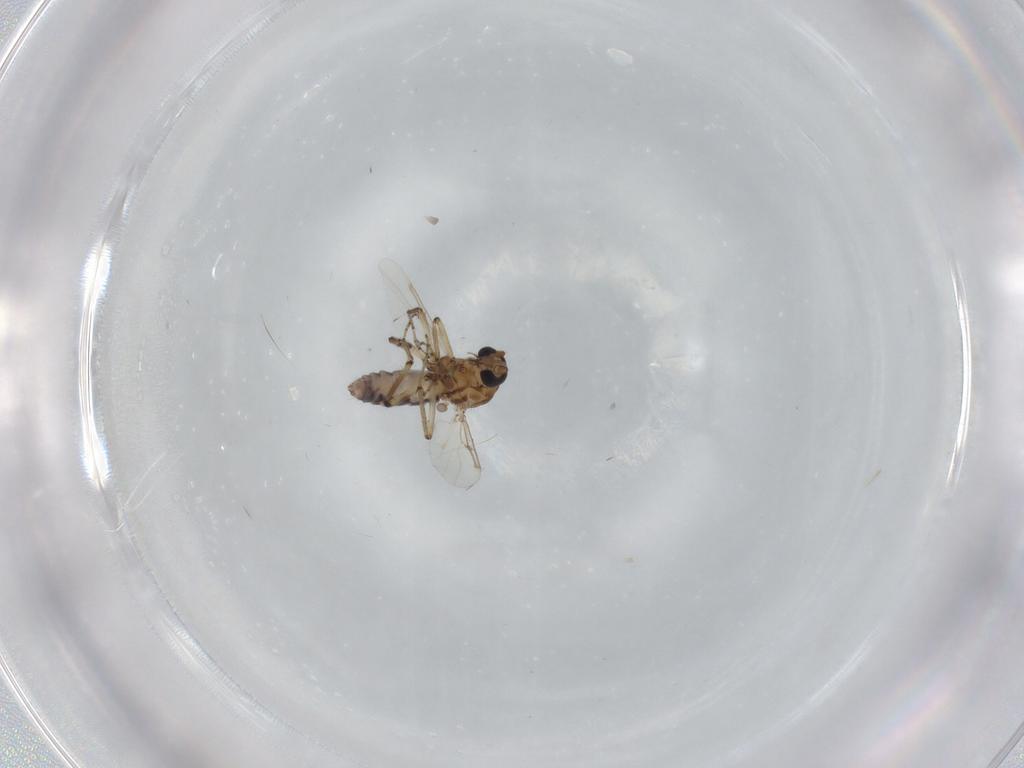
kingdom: Animalia
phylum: Arthropoda
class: Insecta
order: Diptera
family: Ceratopogonidae
